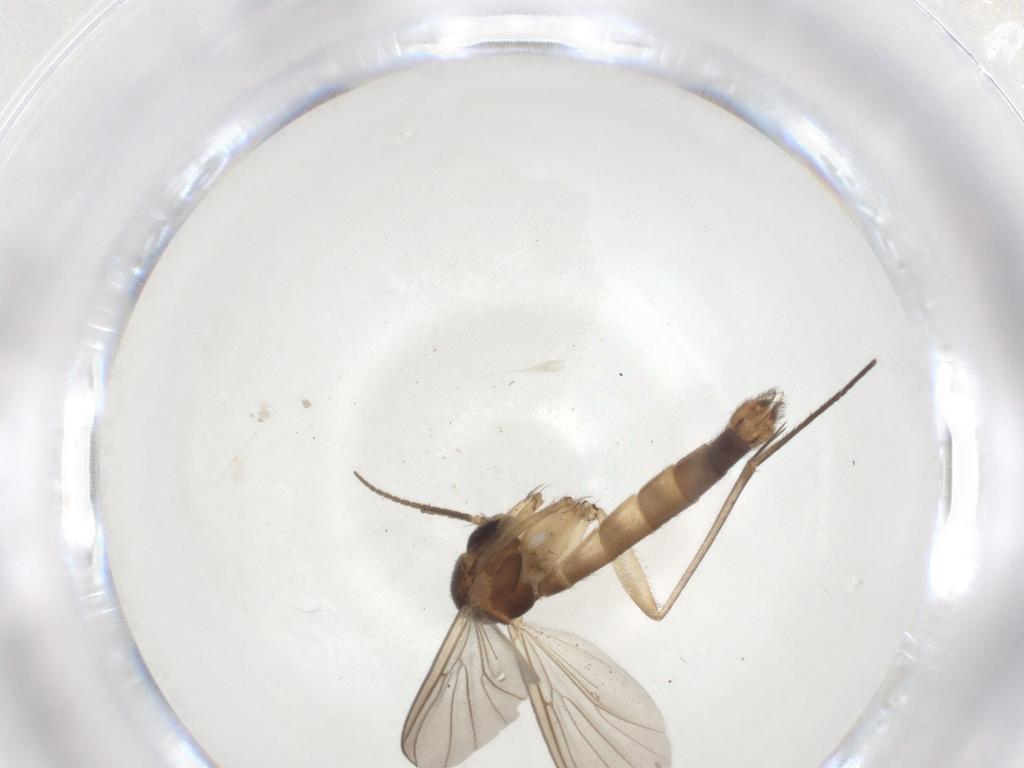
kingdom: Animalia
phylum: Arthropoda
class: Insecta
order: Diptera
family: Mycetophilidae
